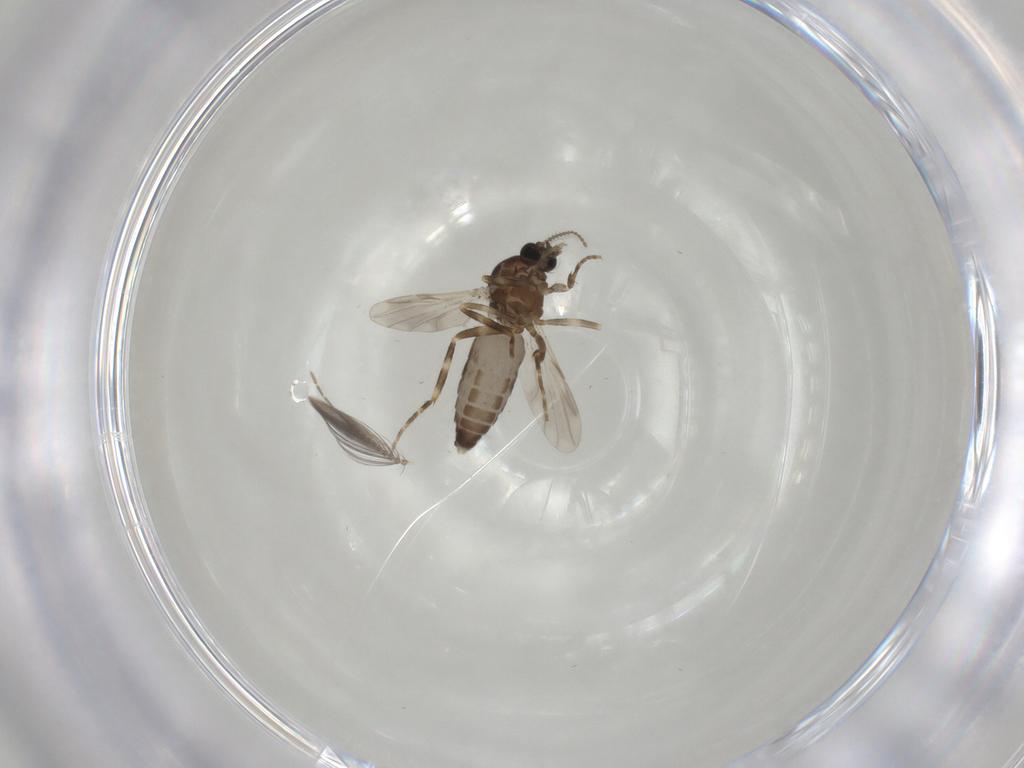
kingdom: Animalia
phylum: Arthropoda
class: Insecta
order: Diptera
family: Ceratopogonidae
